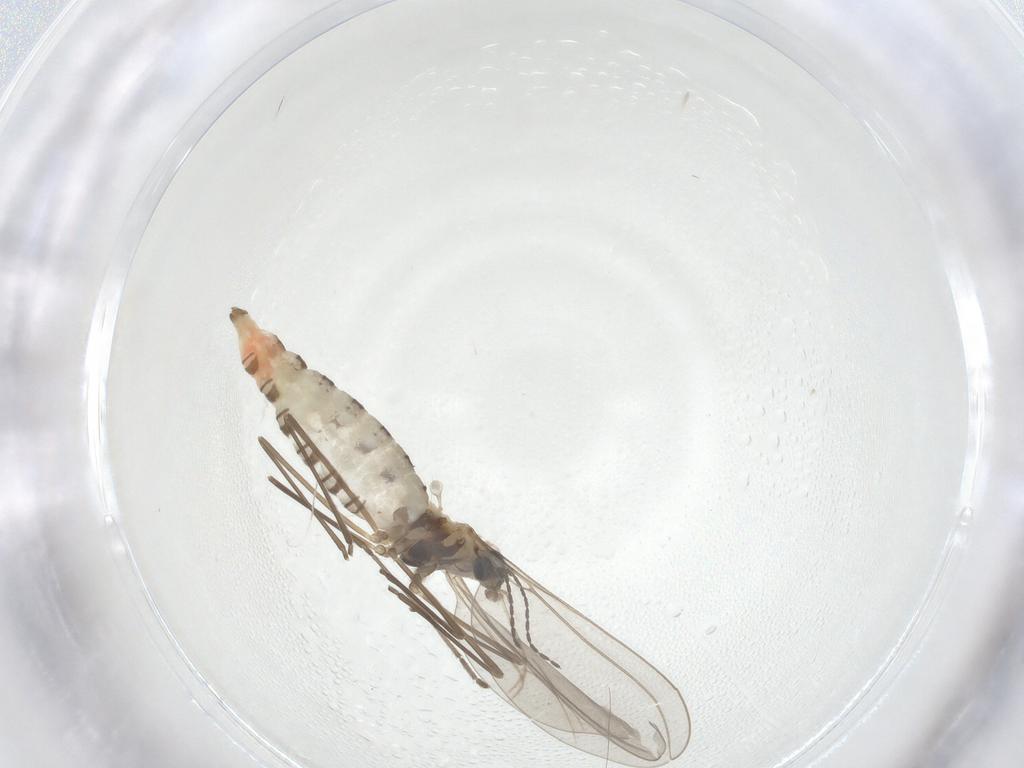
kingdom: Animalia
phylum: Arthropoda
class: Insecta
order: Diptera
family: Cecidomyiidae
